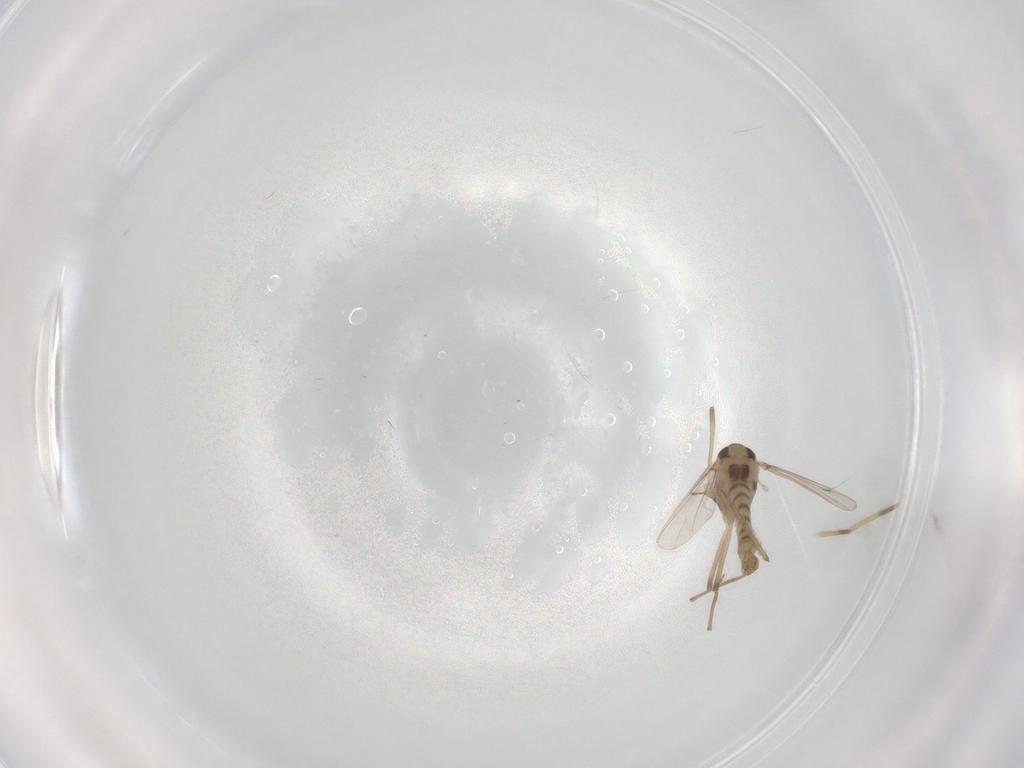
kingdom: Animalia
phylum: Arthropoda
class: Insecta
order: Diptera
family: Chironomidae
